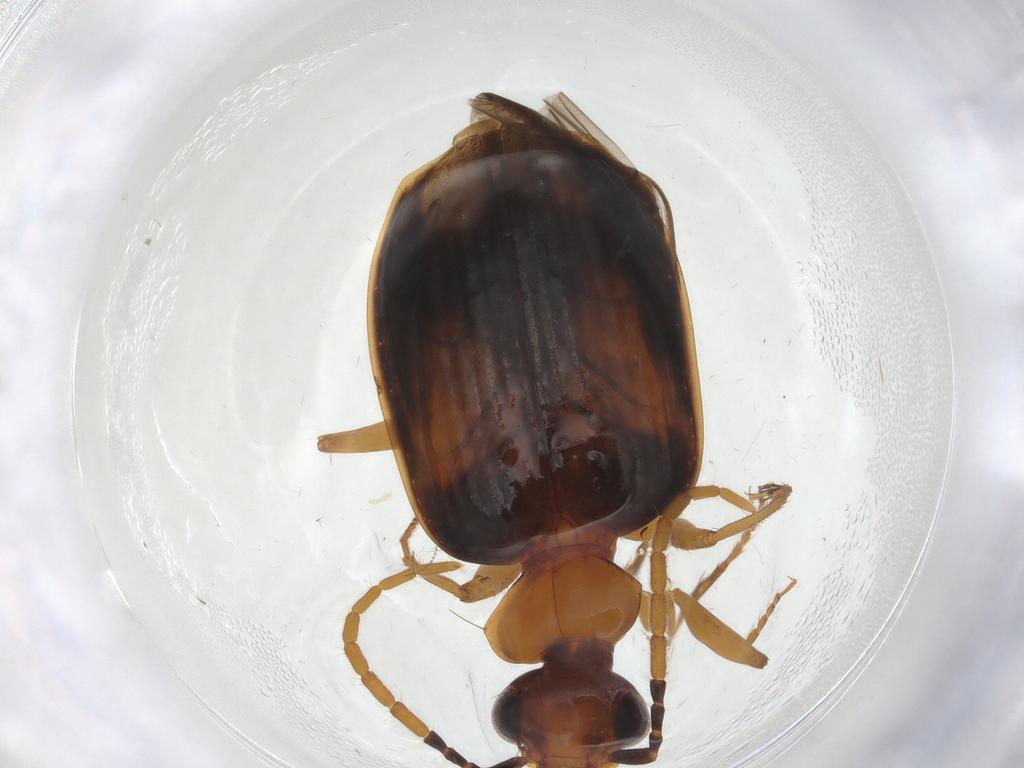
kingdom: Animalia
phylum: Arthropoda
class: Insecta
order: Coleoptera
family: Carabidae
